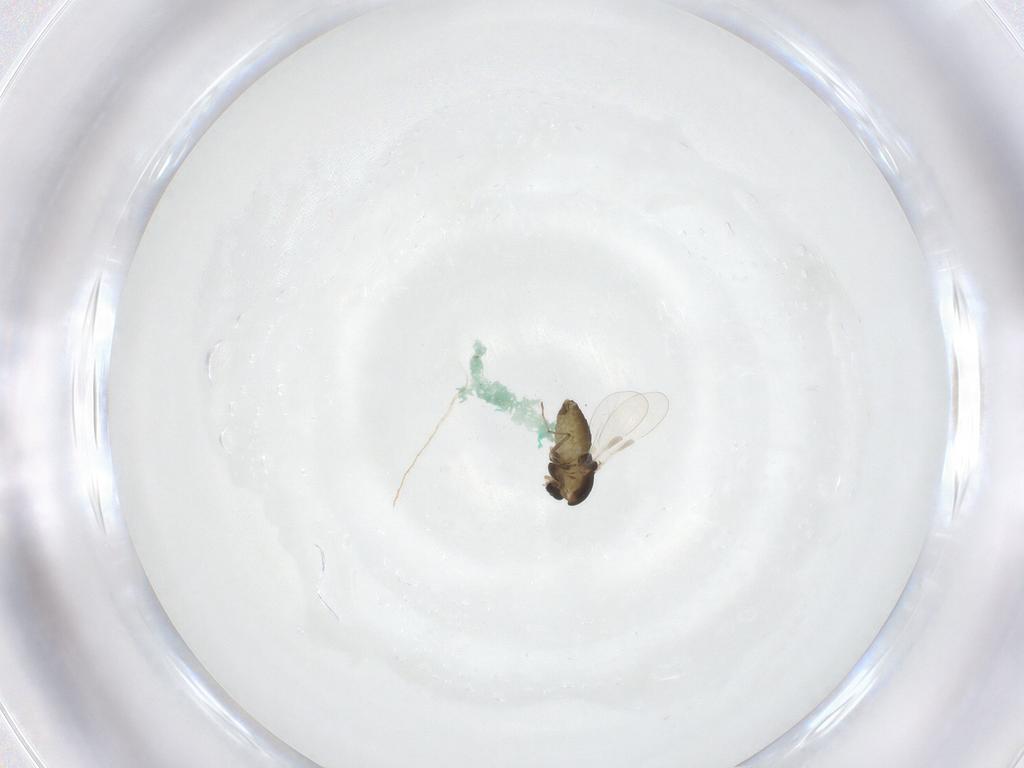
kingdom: Animalia
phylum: Arthropoda
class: Insecta
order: Diptera
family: Chironomidae
